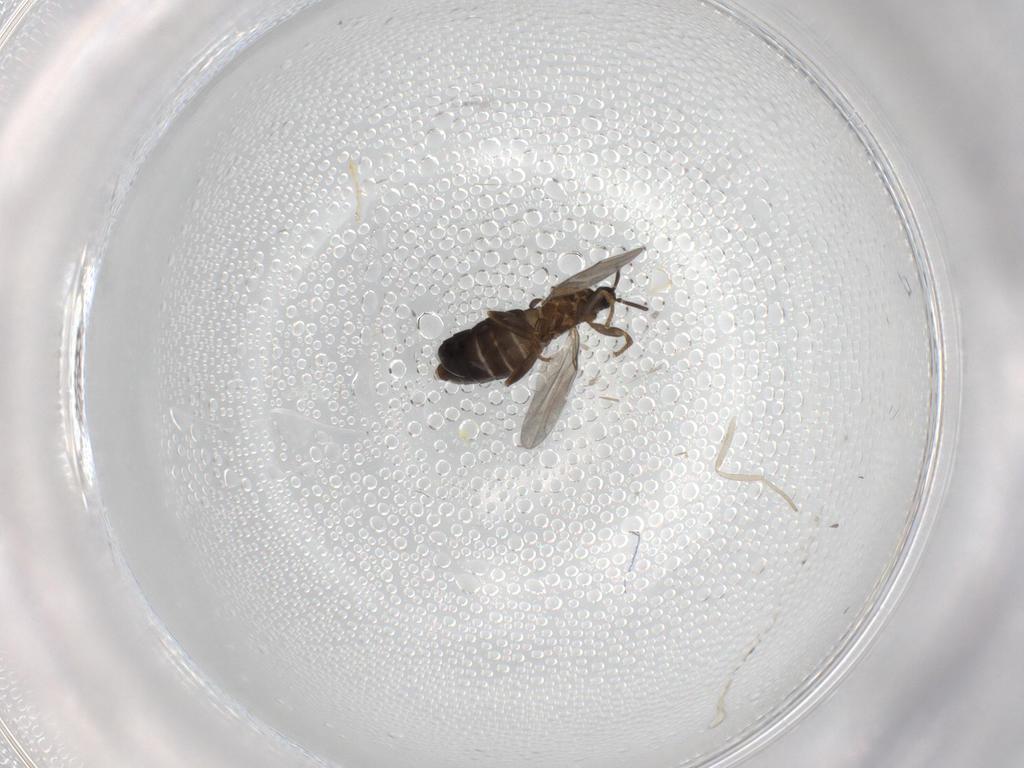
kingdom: Animalia
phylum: Arthropoda
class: Insecta
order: Diptera
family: Scatopsidae
